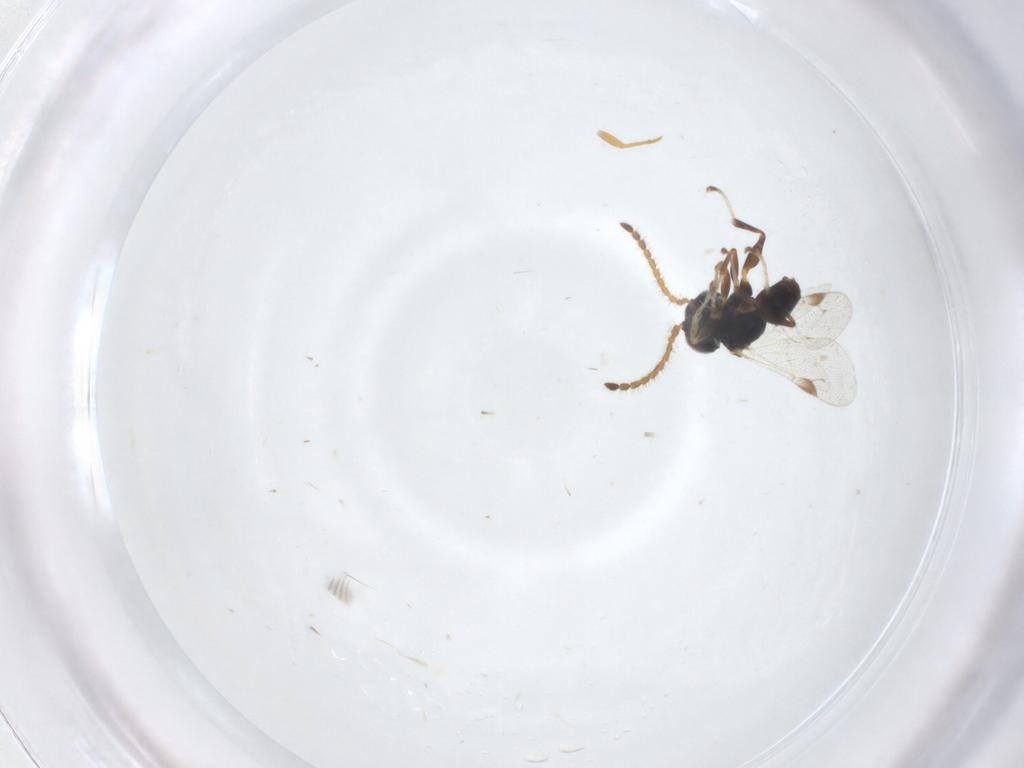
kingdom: Animalia
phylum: Arthropoda
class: Insecta
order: Hymenoptera
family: Dryinidae
